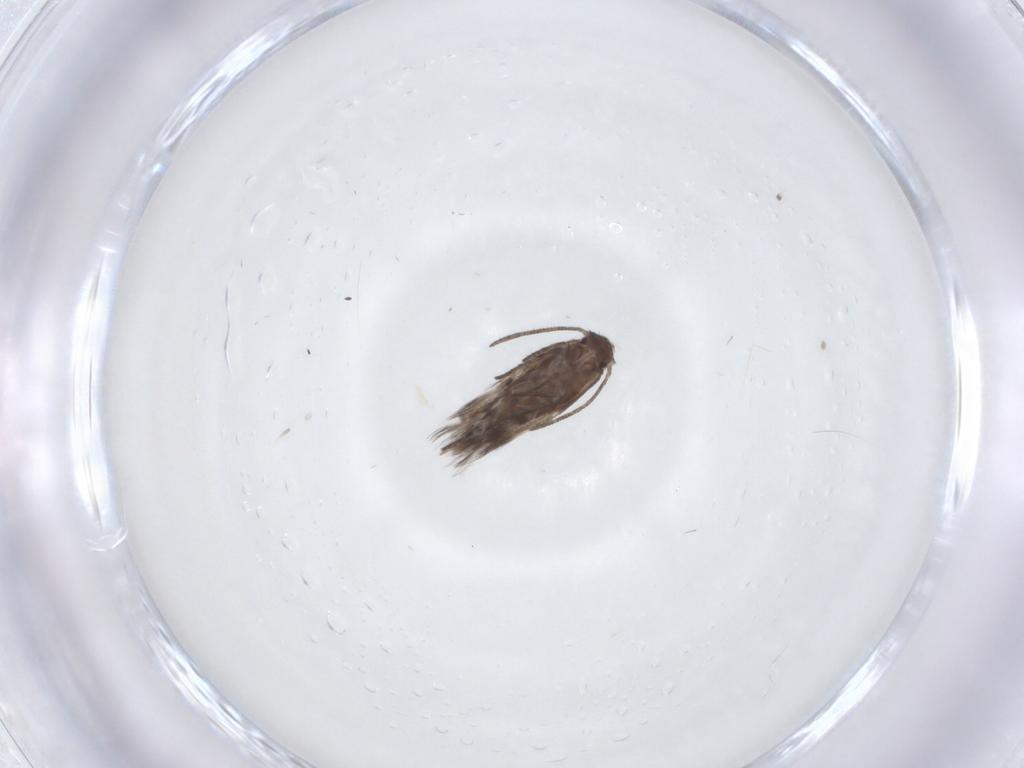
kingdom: Animalia
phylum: Arthropoda
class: Insecta
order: Lepidoptera
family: Lyonetiidae
